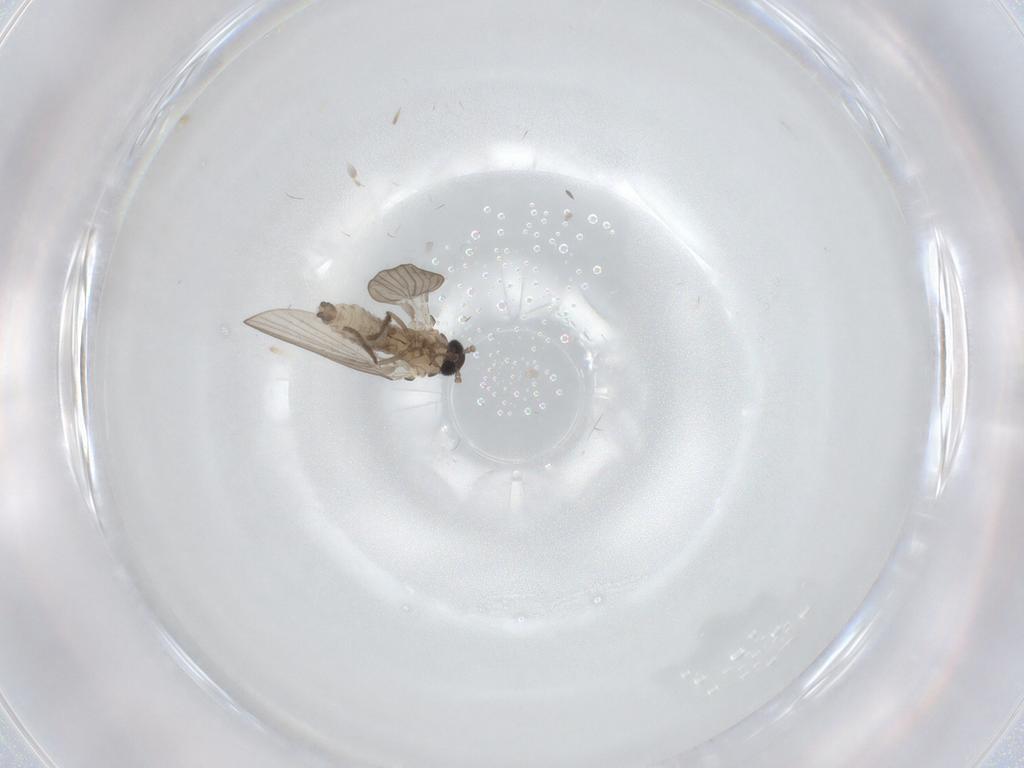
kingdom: Animalia
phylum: Arthropoda
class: Insecta
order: Diptera
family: Psychodidae
